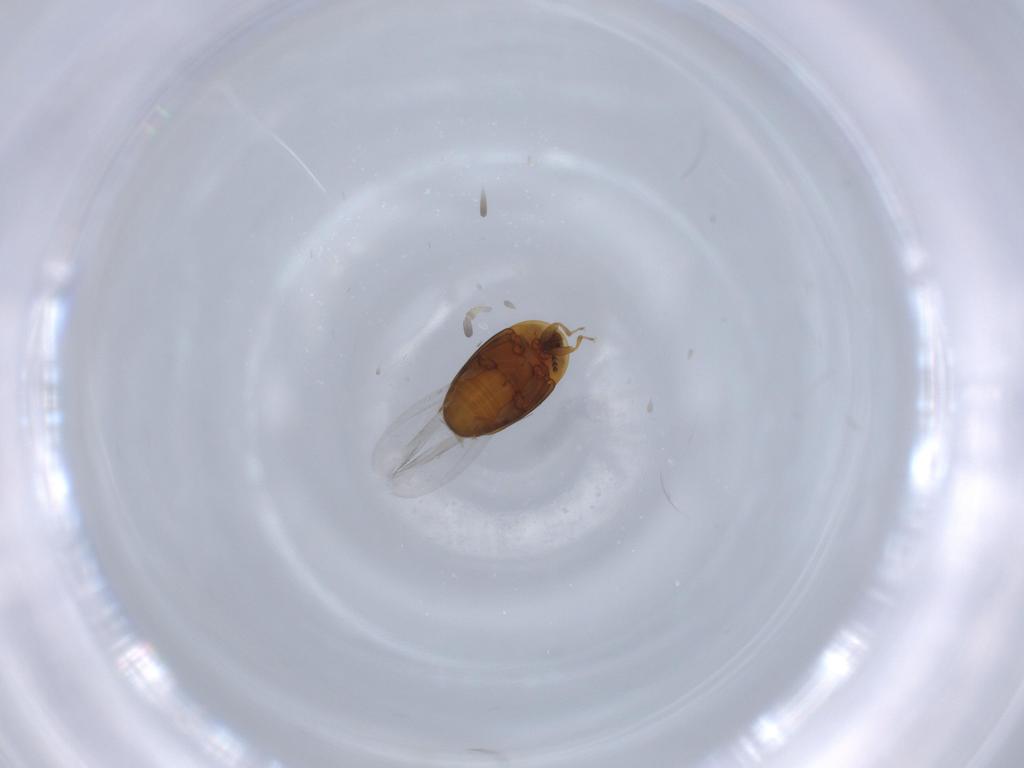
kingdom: Animalia
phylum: Arthropoda
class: Insecta
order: Coleoptera
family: Corylophidae
